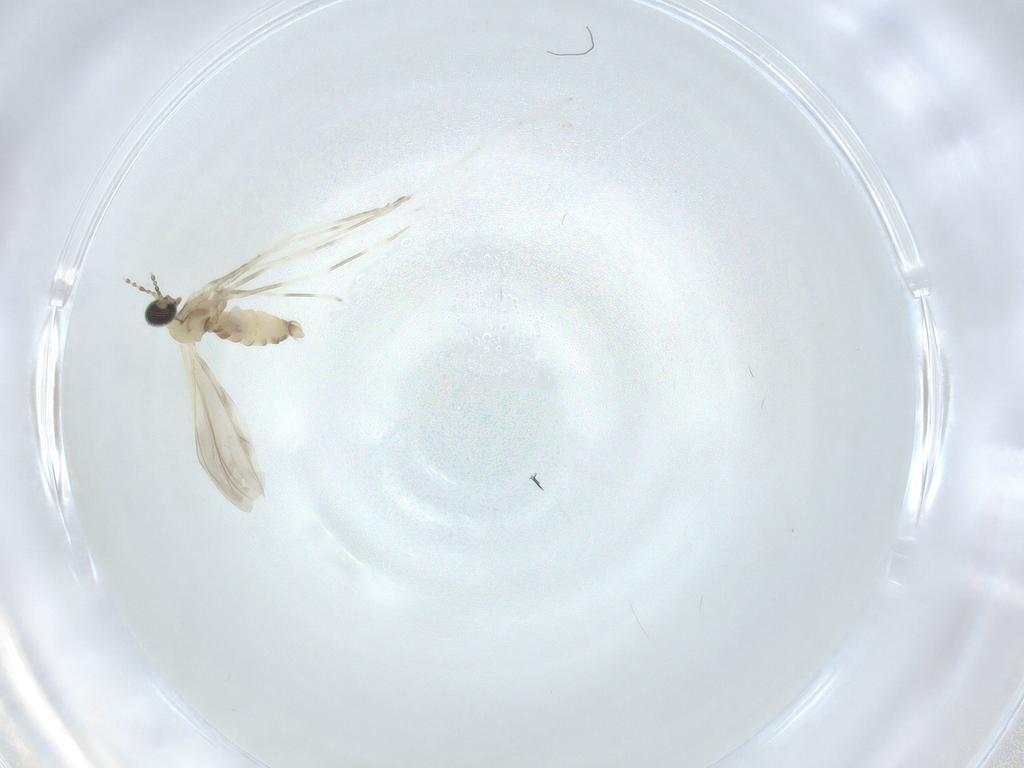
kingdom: Animalia
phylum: Arthropoda
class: Insecta
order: Diptera
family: Cecidomyiidae
